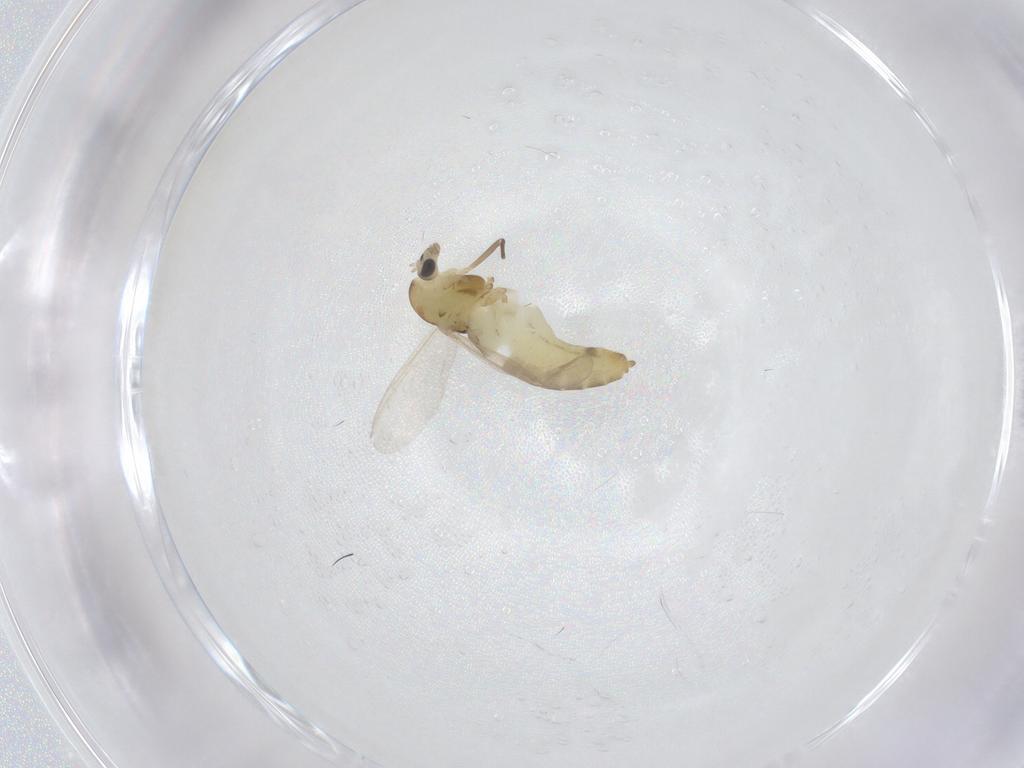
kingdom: Animalia
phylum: Arthropoda
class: Insecta
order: Diptera
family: Chironomidae
